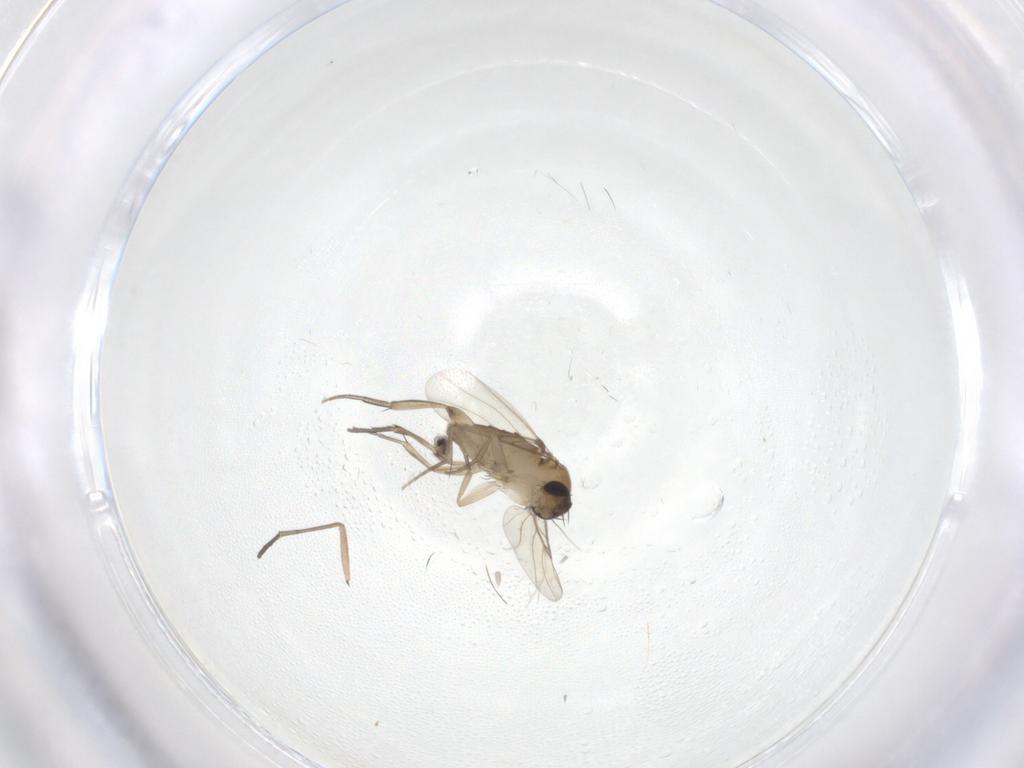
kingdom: Animalia
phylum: Arthropoda
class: Insecta
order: Diptera
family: Phoridae
